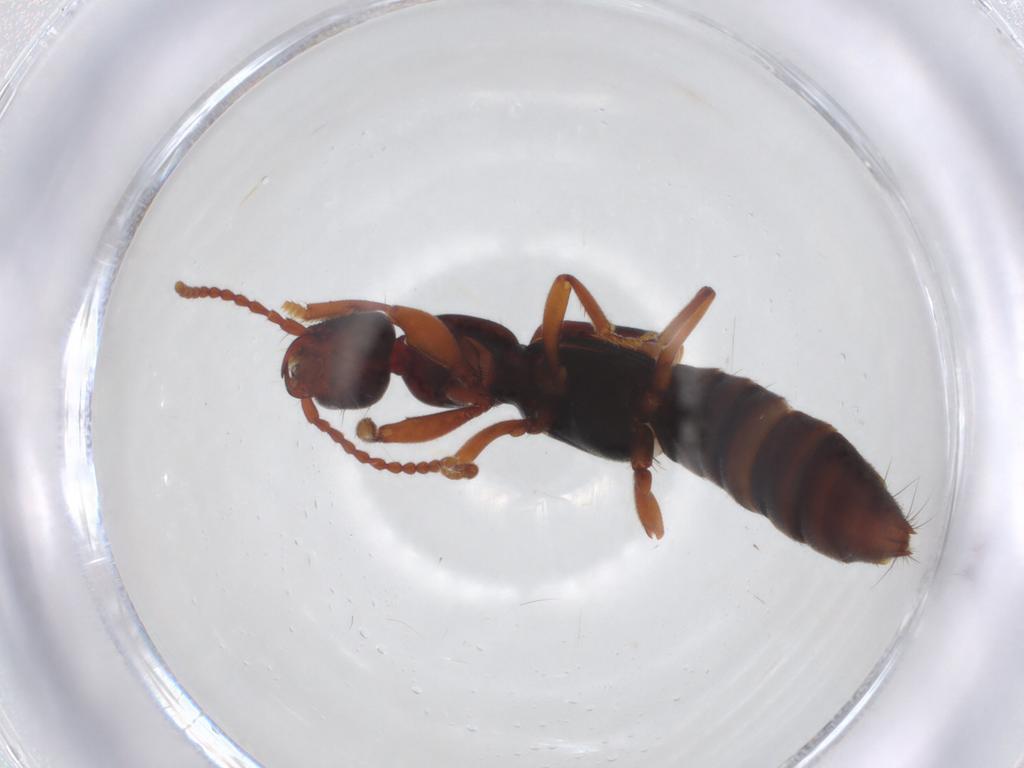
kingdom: Animalia
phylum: Arthropoda
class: Insecta
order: Coleoptera
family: Staphylinidae
